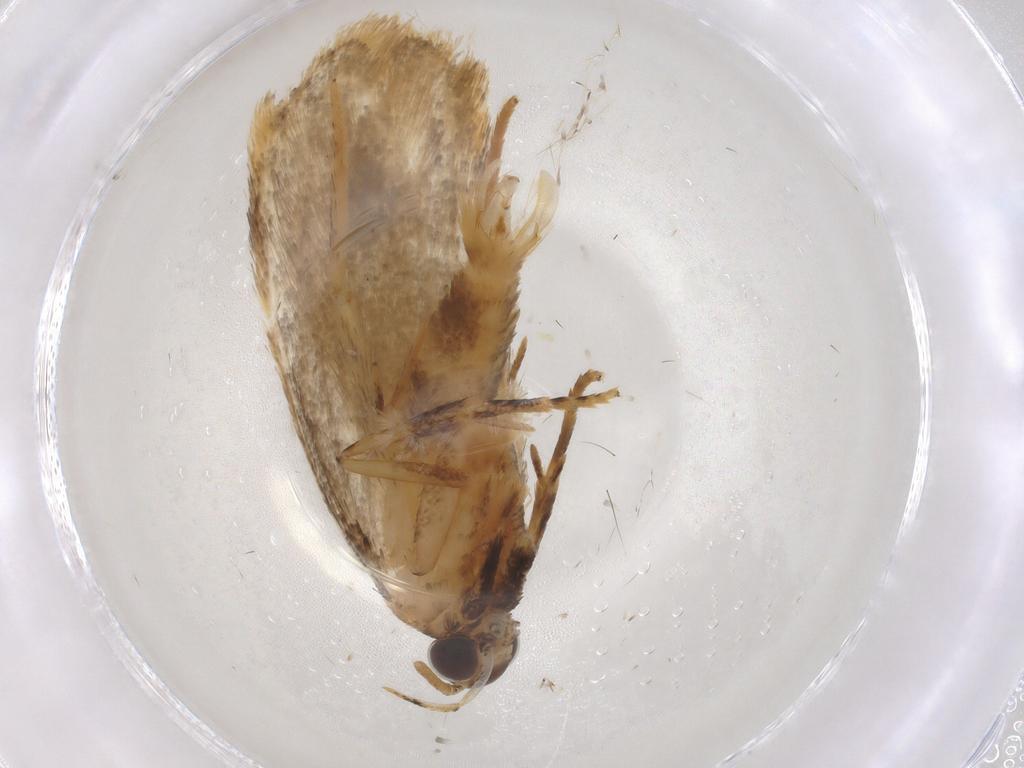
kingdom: Animalia
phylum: Arthropoda
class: Insecta
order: Lepidoptera
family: Gelechiidae
